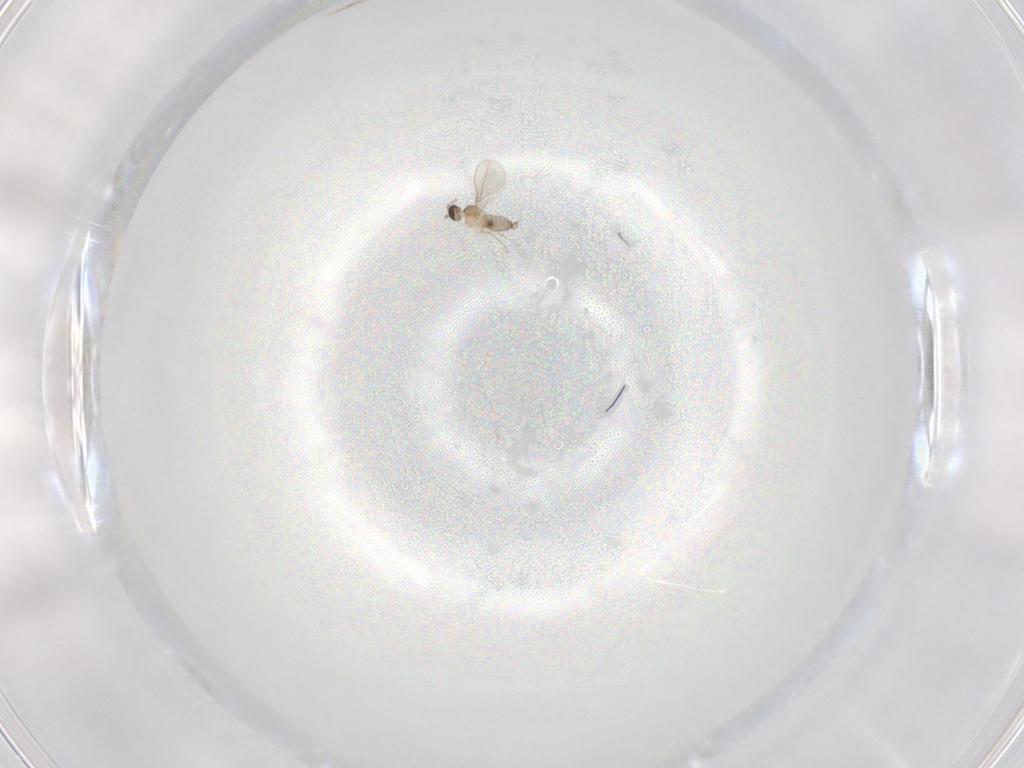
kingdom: Animalia
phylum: Arthropoda
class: Insecta
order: Diptera
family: Cecidomyiidae
